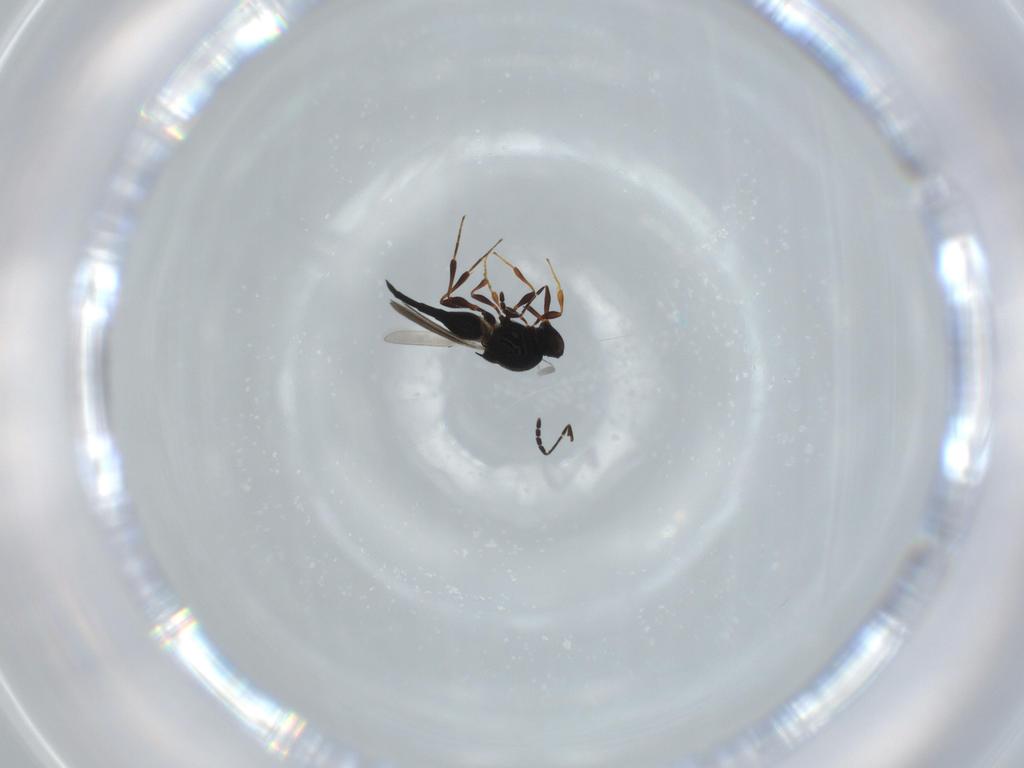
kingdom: Animalia
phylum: Arthropoda
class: Insecta
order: Hymenoptera
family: Platygastridae
